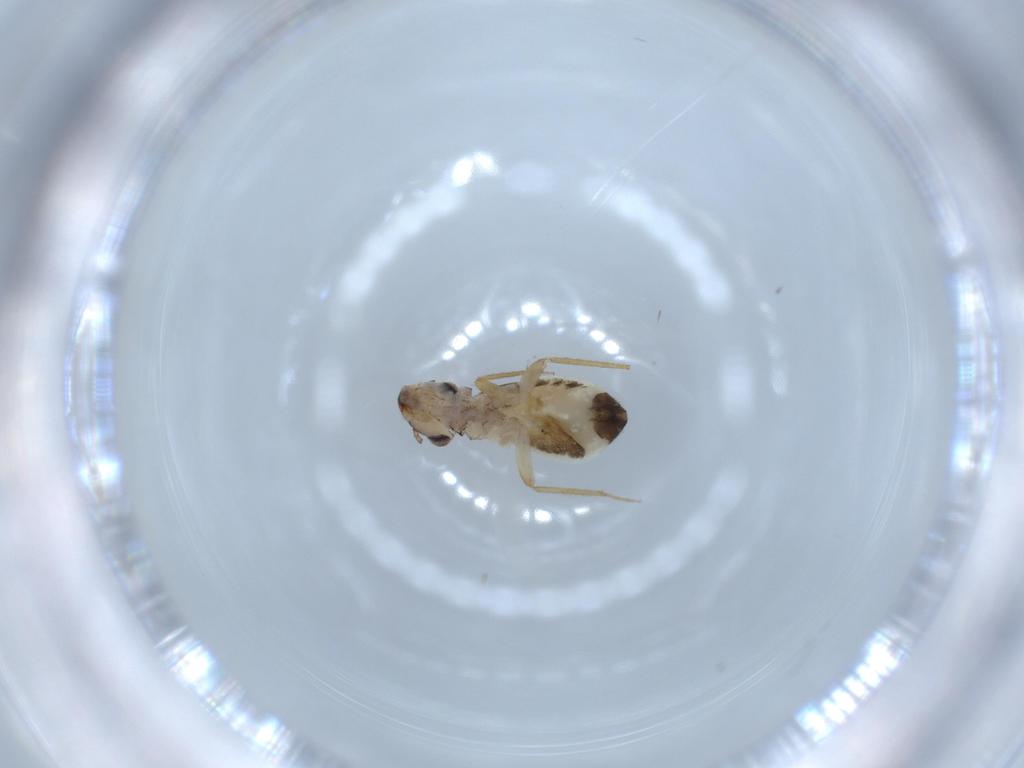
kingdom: Animalia
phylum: Arthropoda
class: Insecta
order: Psocodea
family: Lepidopsocidae
